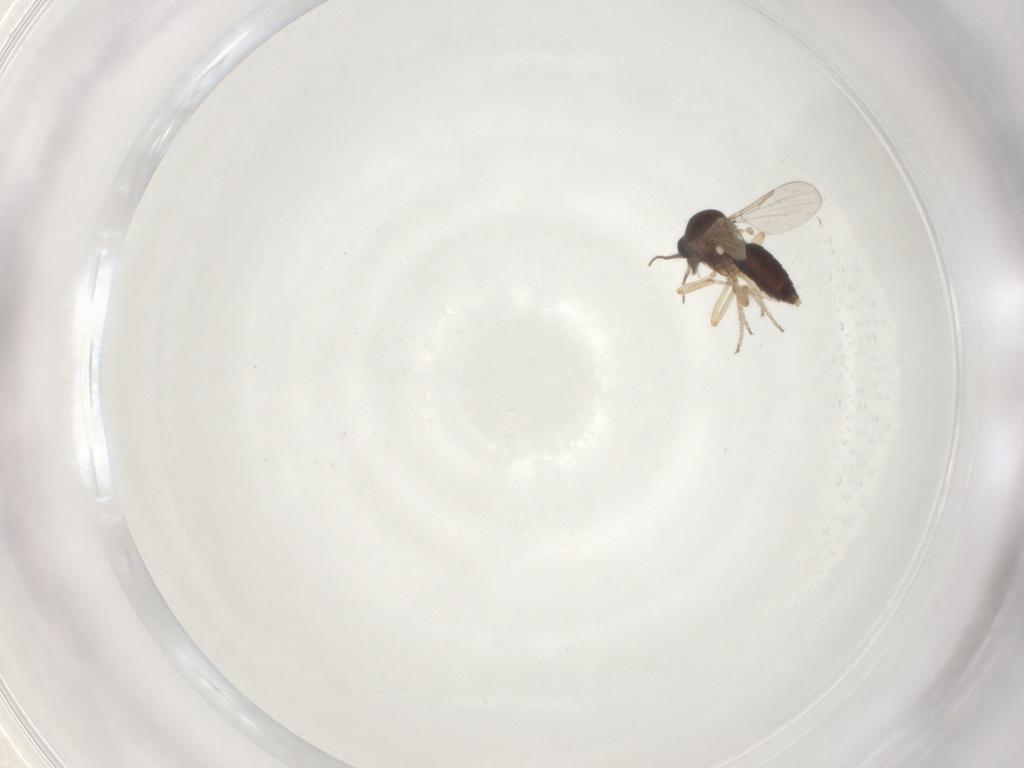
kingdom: Animalia
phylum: Arthropoda
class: Insecta
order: Diptera
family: Ceratopogonidae
